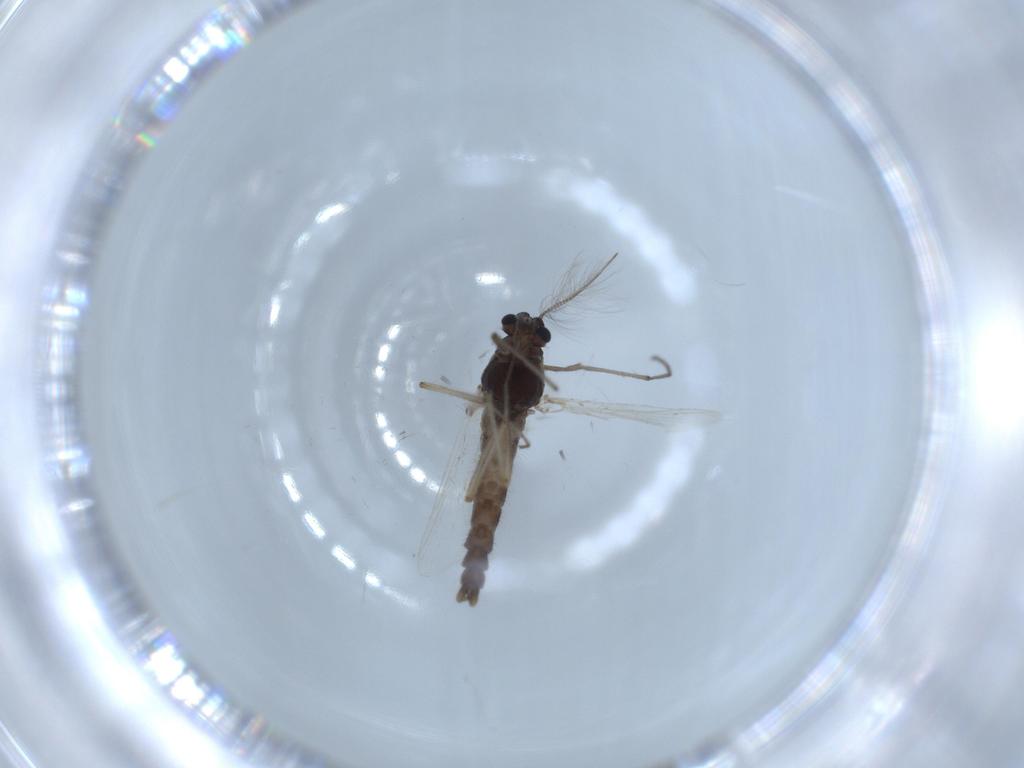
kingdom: Animalia
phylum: Arthropoda
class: Insecta
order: Diptera
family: Chironomidae
